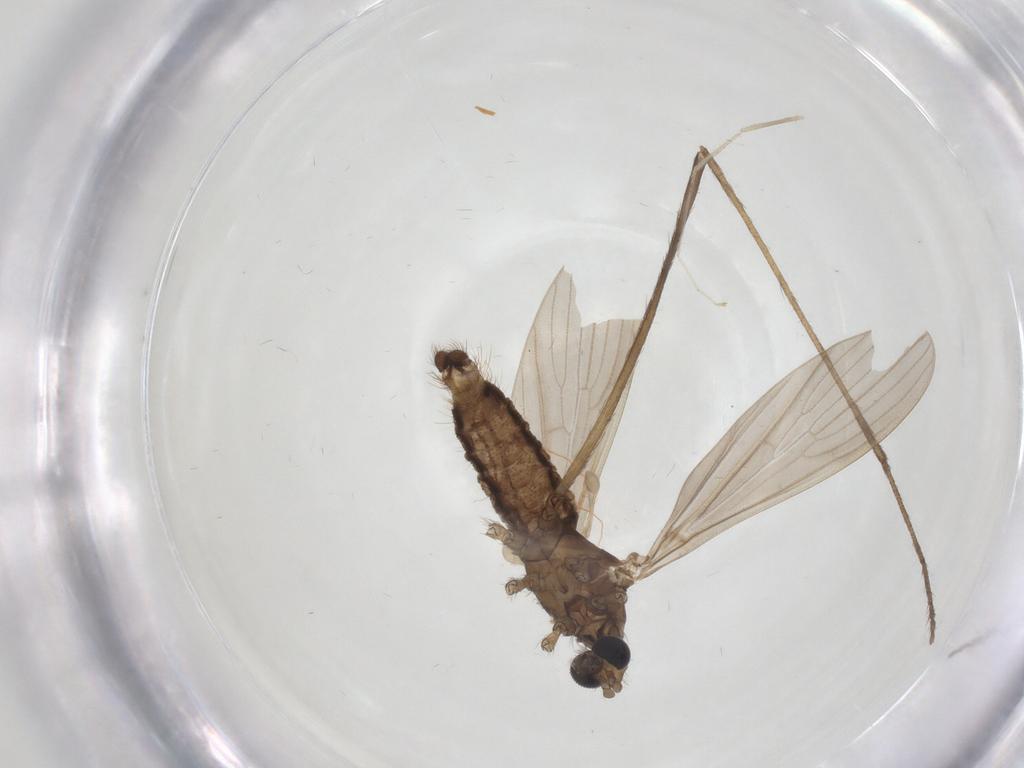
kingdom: Animalia
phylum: Arthropoda
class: Insecta
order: Diptera
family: Limoniidae
